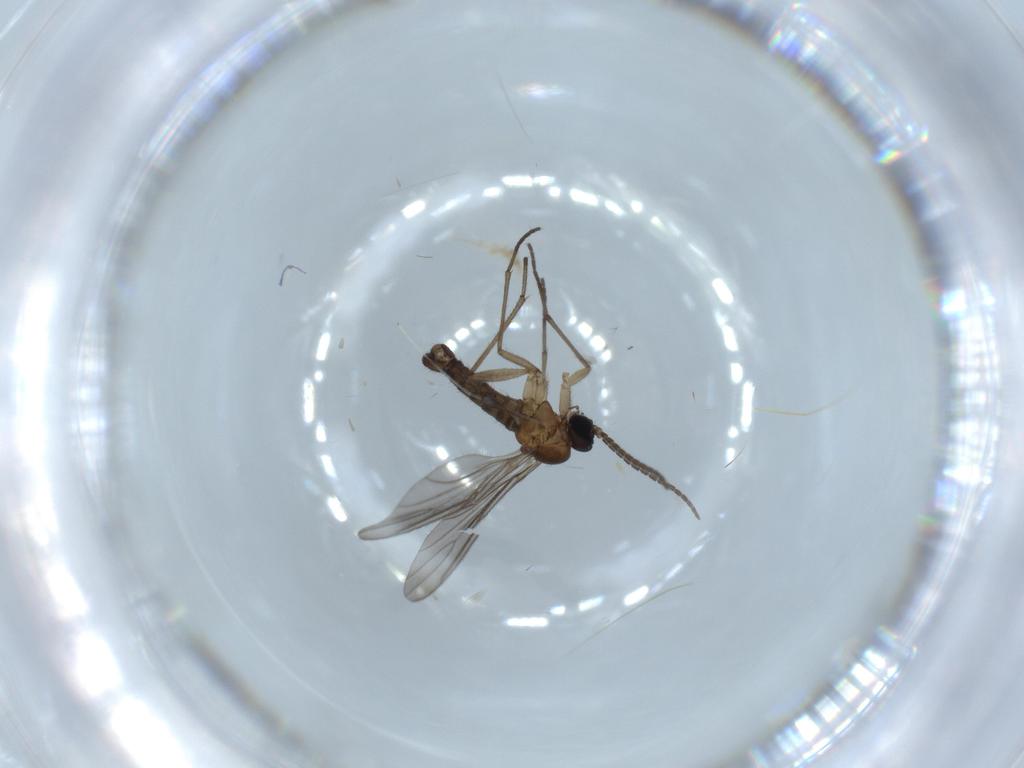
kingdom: Animalia
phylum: Arthropoda
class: Insecta
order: Diptera
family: Sciaridae
